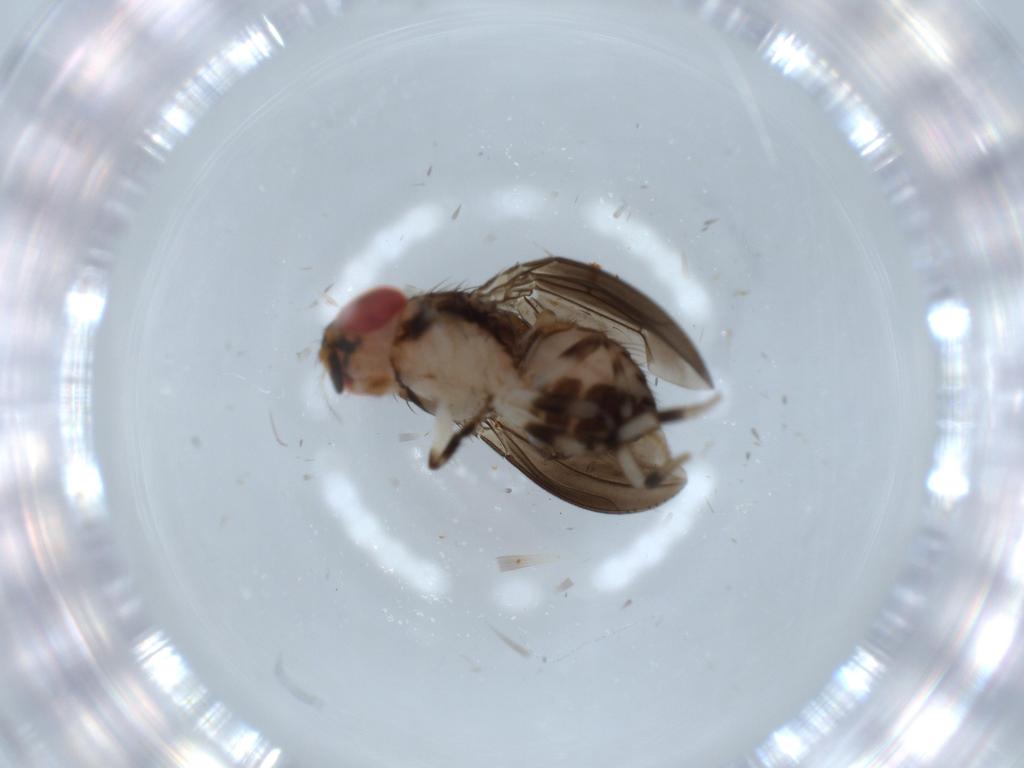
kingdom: Animalia
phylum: Arthropoda
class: Insecta
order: Diptera
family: Drosophilidae
